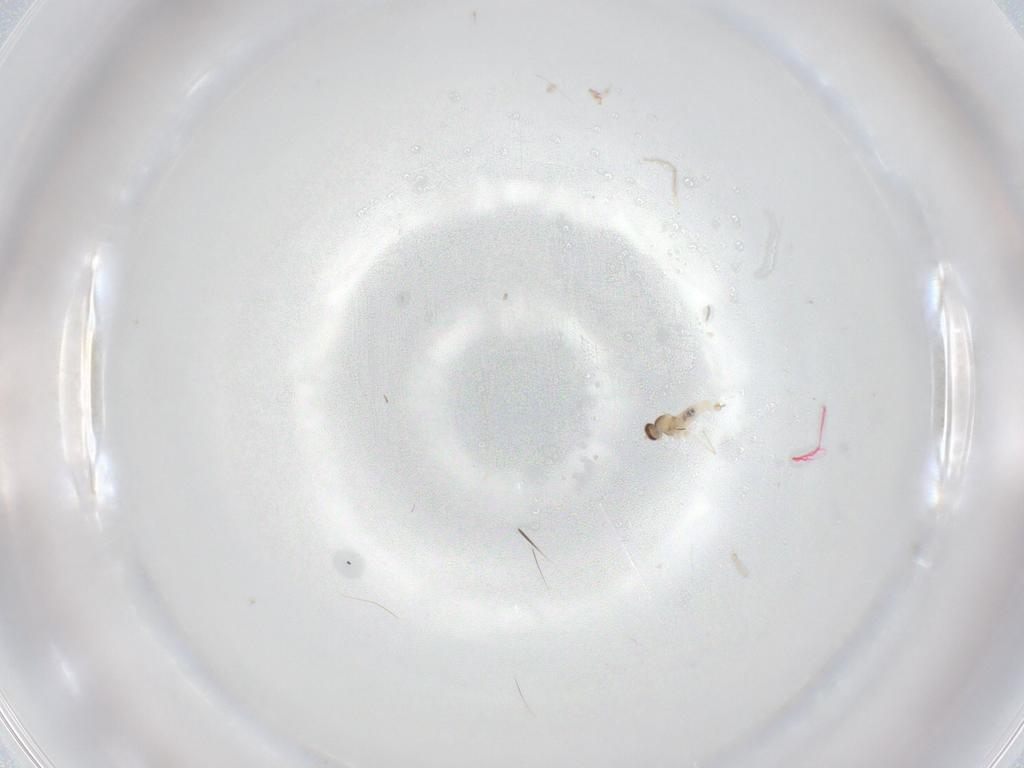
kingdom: Animalia
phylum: Arthropoda
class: Insecta
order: Diptera
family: Cecidomyiidae
